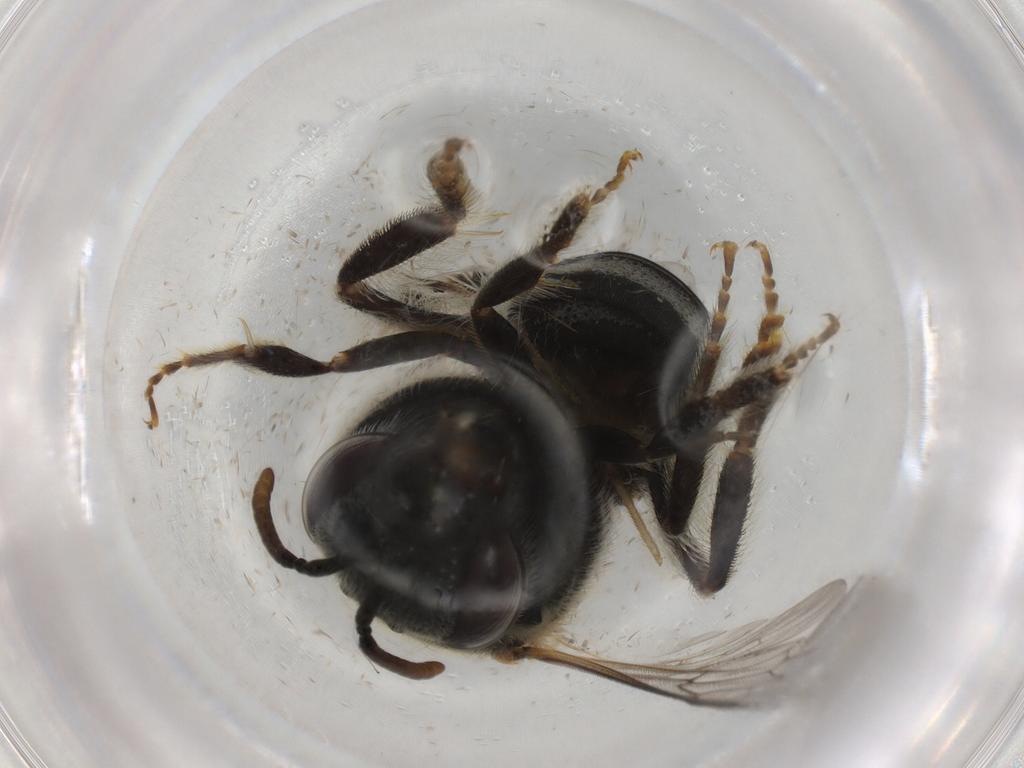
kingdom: Animalia
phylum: Arthropoda
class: Insecta
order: Hymenoptera
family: Scelionidae
